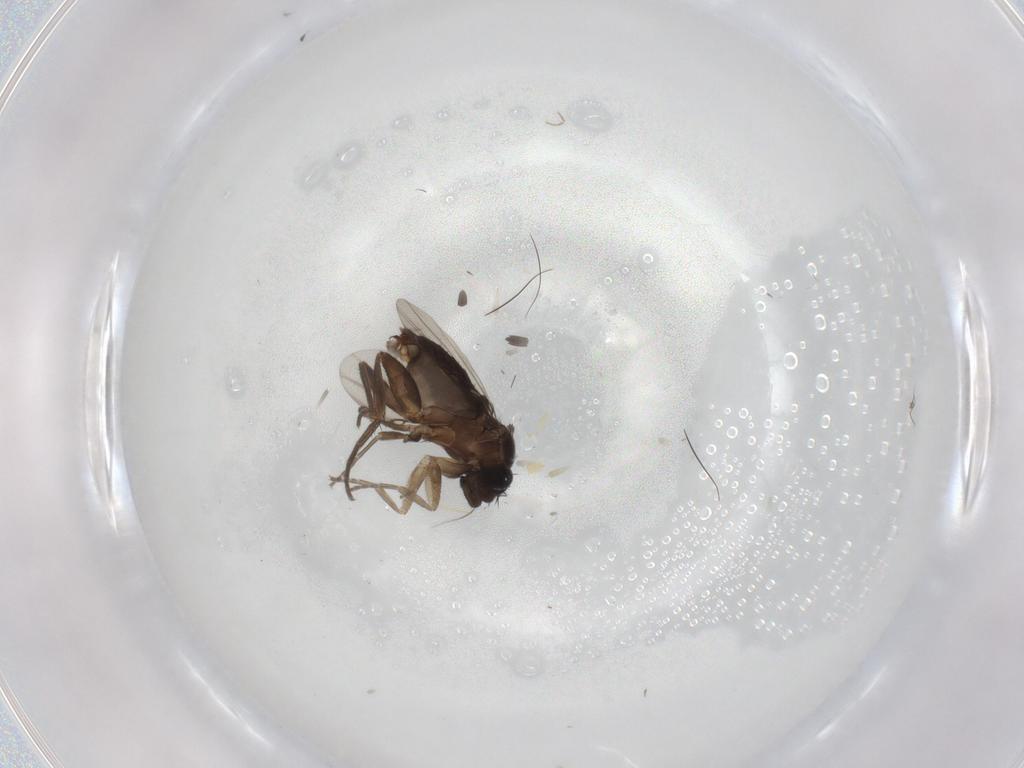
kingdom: Animalia
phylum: Arthropoda
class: Insecta
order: Diptera
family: Phoridae
